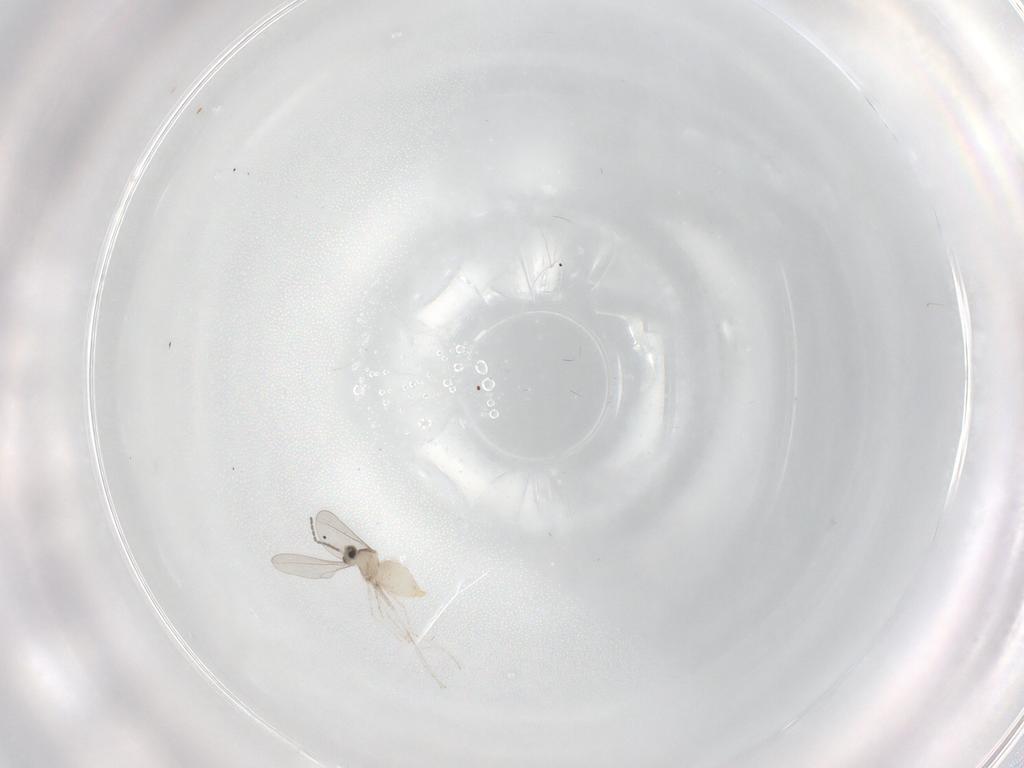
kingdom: Animalia
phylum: Arthropoda
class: Insecta
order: Diptera
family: Cecidomyiidae
